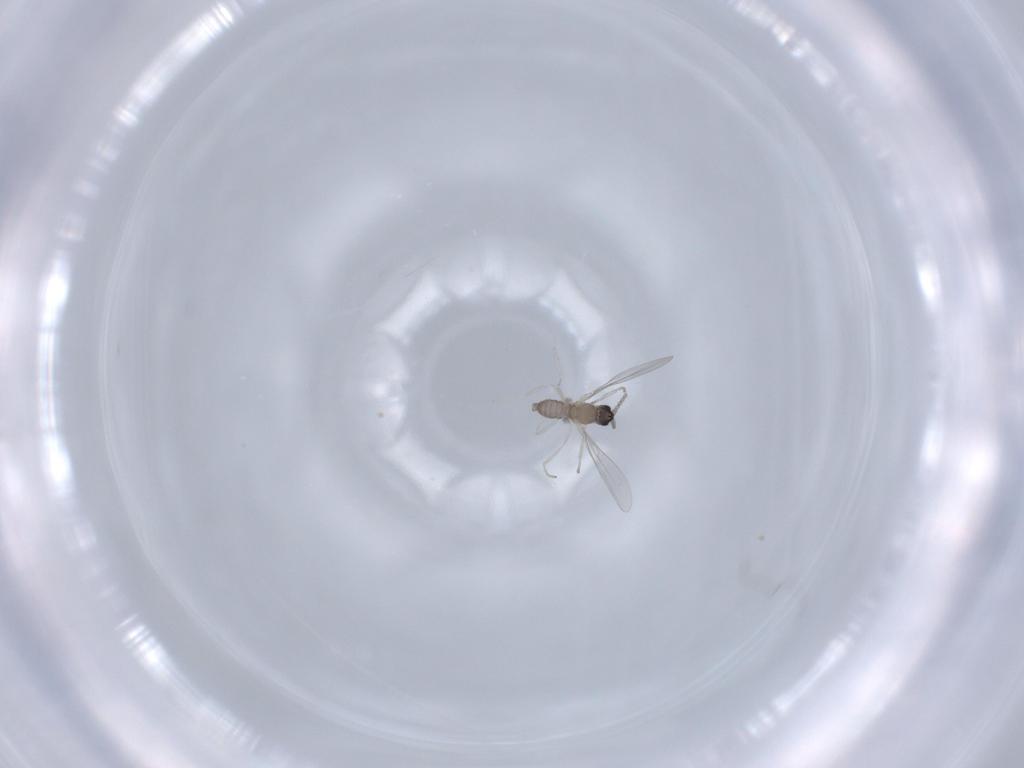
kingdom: Animalia
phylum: Arthropoda
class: Insecta
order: Diptera
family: Cecidomyiidae
